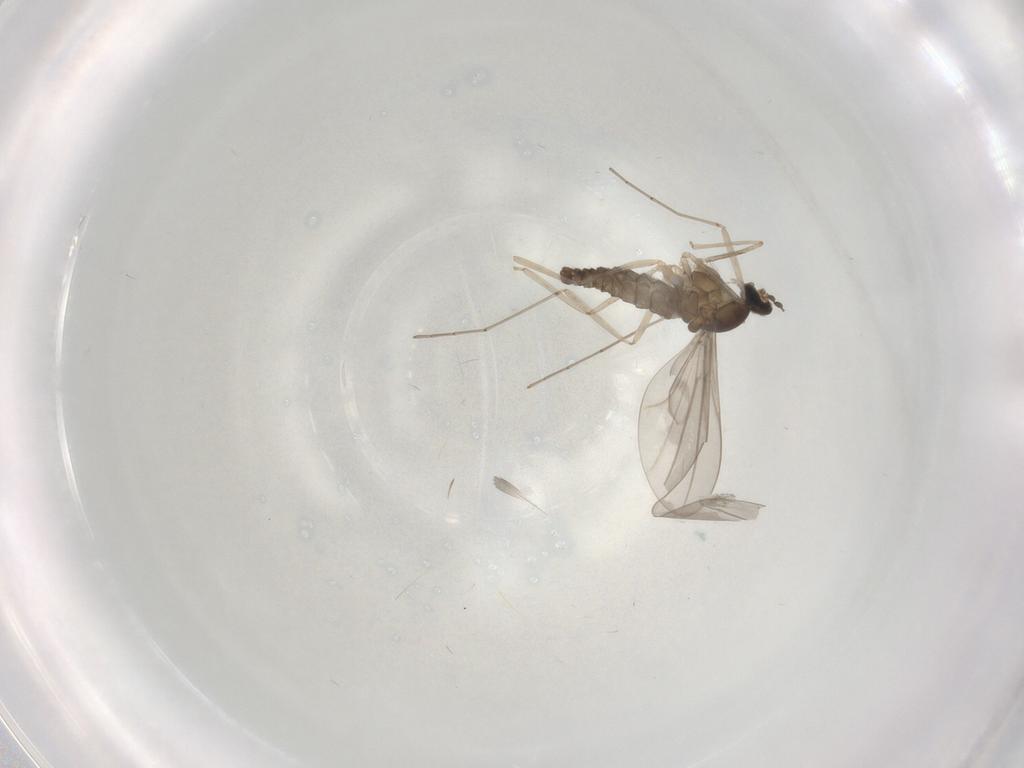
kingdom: Animalia
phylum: Arthropoda
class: Insecta
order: Diptera
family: Cecidomyiidae
